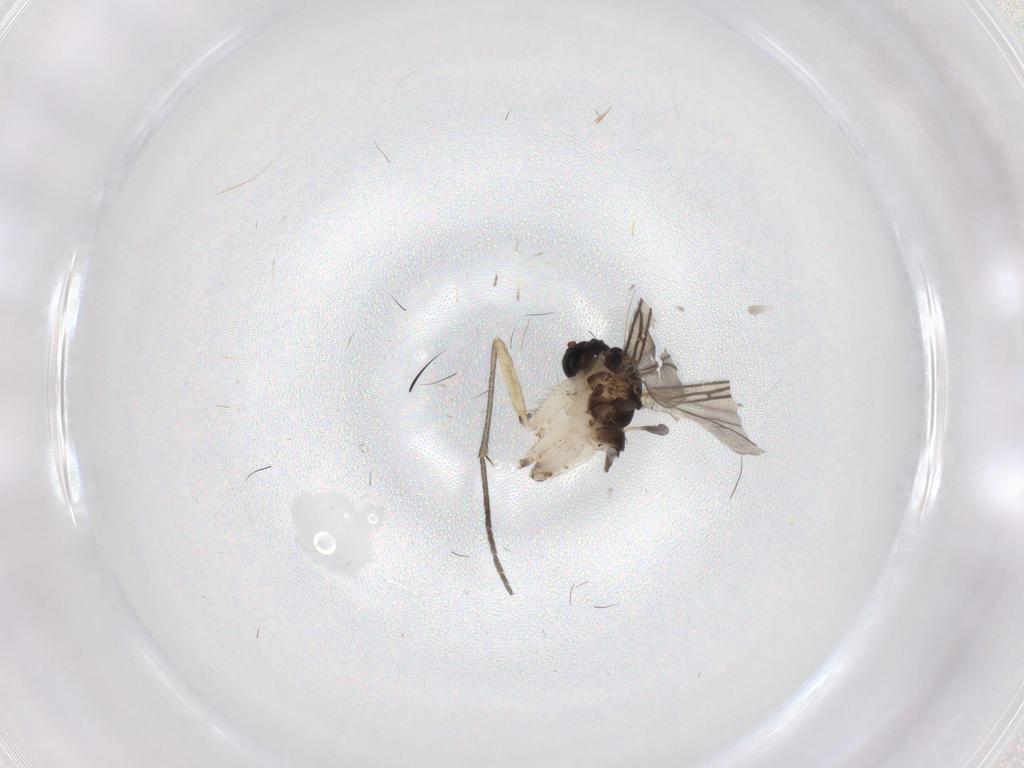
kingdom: Animalia
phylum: Arthropoda
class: Insecta
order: Diptera
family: Sciaridae
